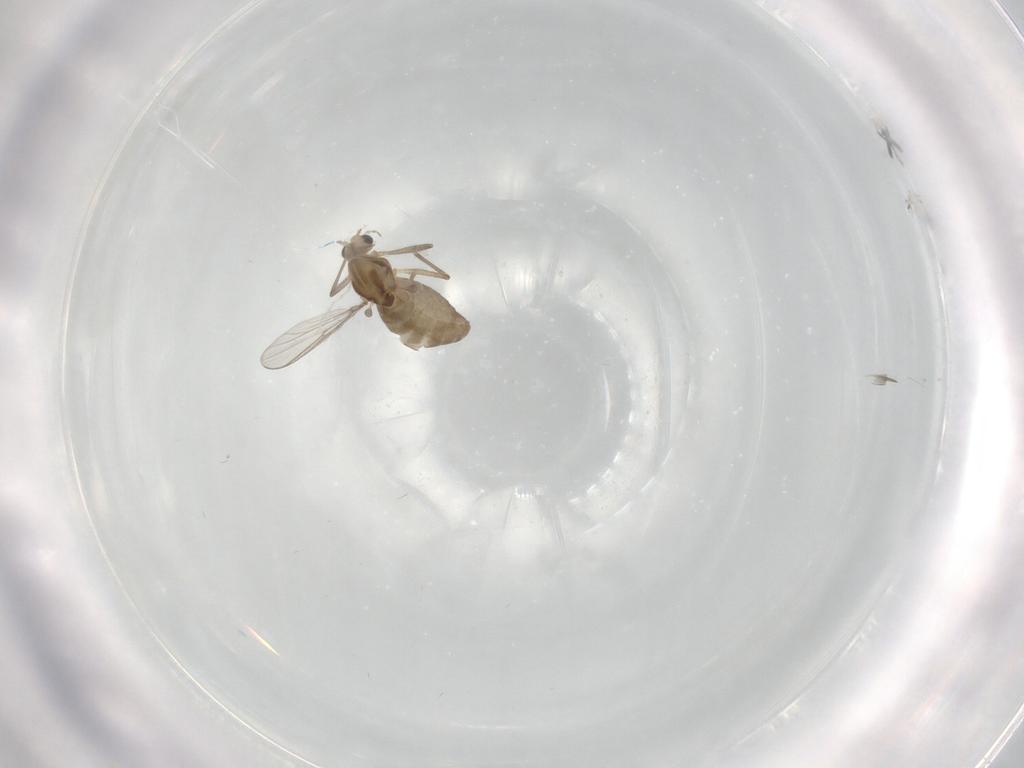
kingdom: Animalia
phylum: Arthropoda
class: Insecta
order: Diptera
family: Chironomidae
